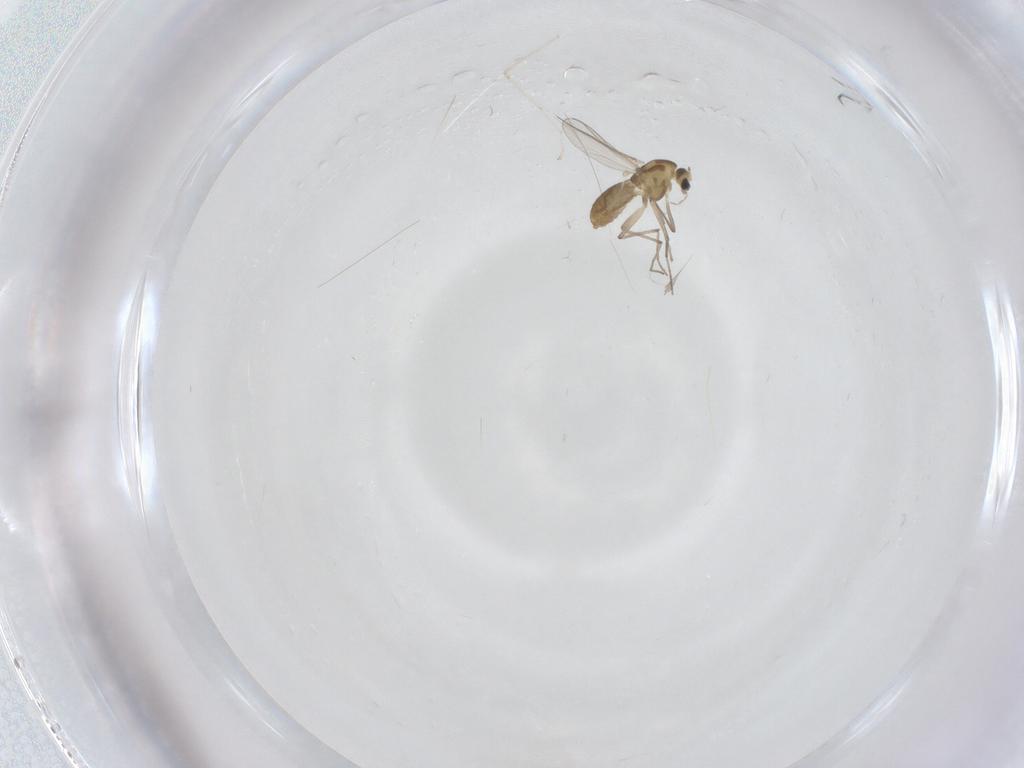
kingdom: Animalia
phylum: Arthropoda
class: Insecta
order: Diptera
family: Chironomidae
